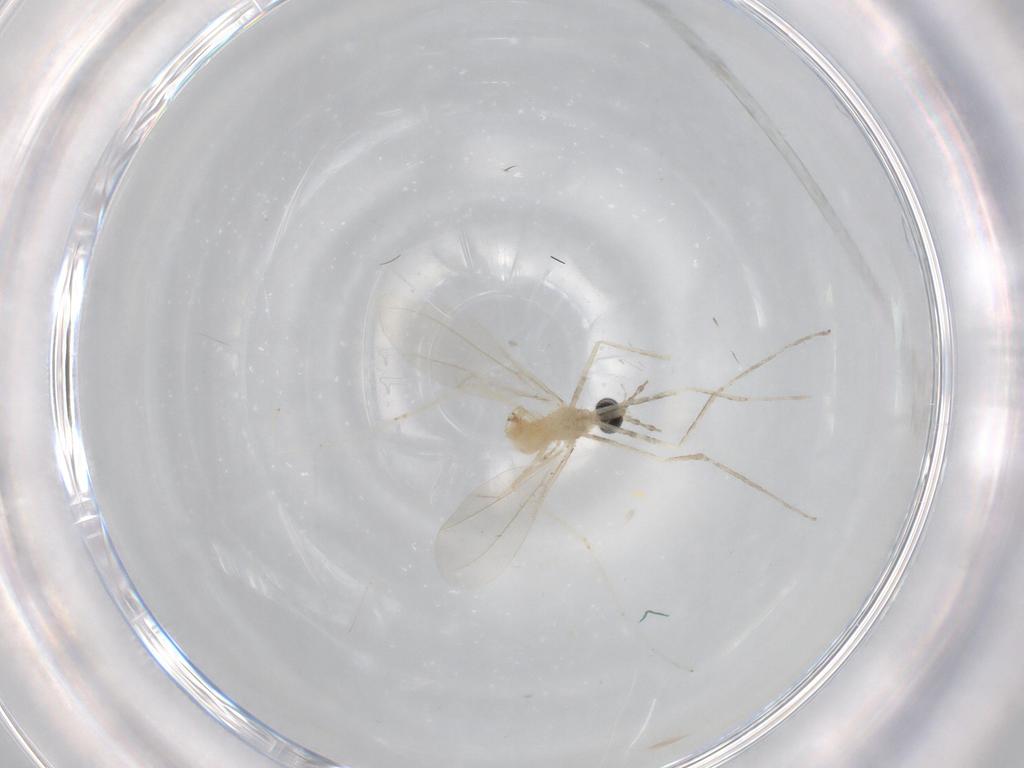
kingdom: Animalia
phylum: Arthropoda
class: Insecta
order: Diptera
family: Cecidomyiidae
